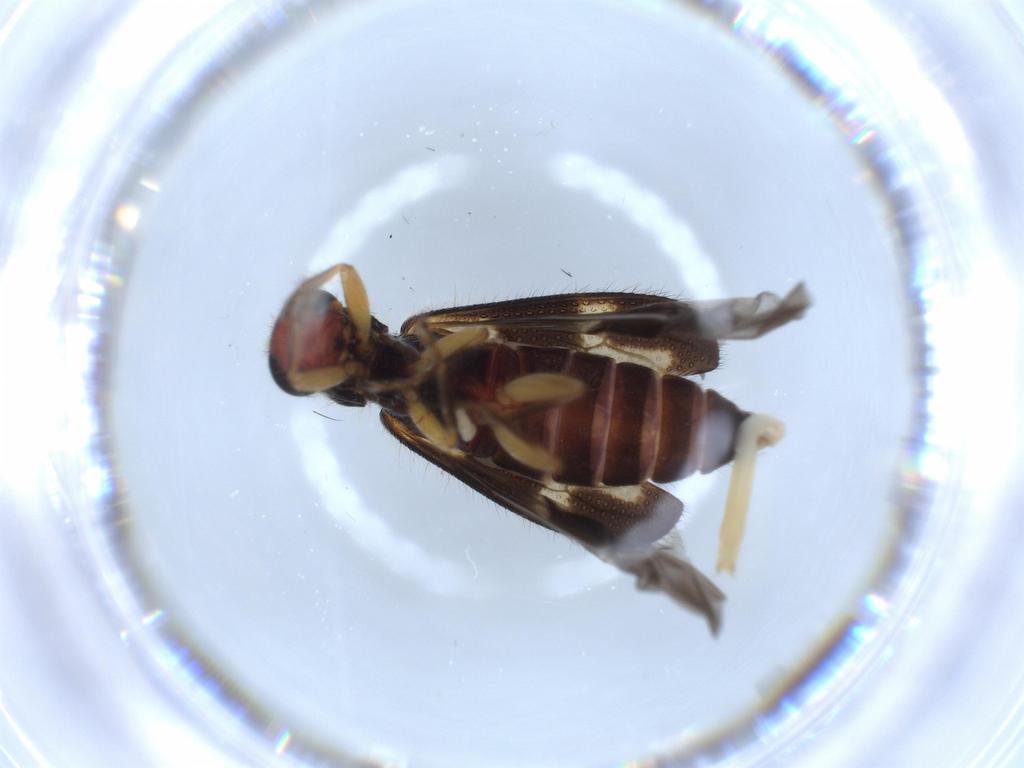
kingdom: Animalia
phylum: Arthropoda
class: Insecta
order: Coleoptera
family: Cleridae
